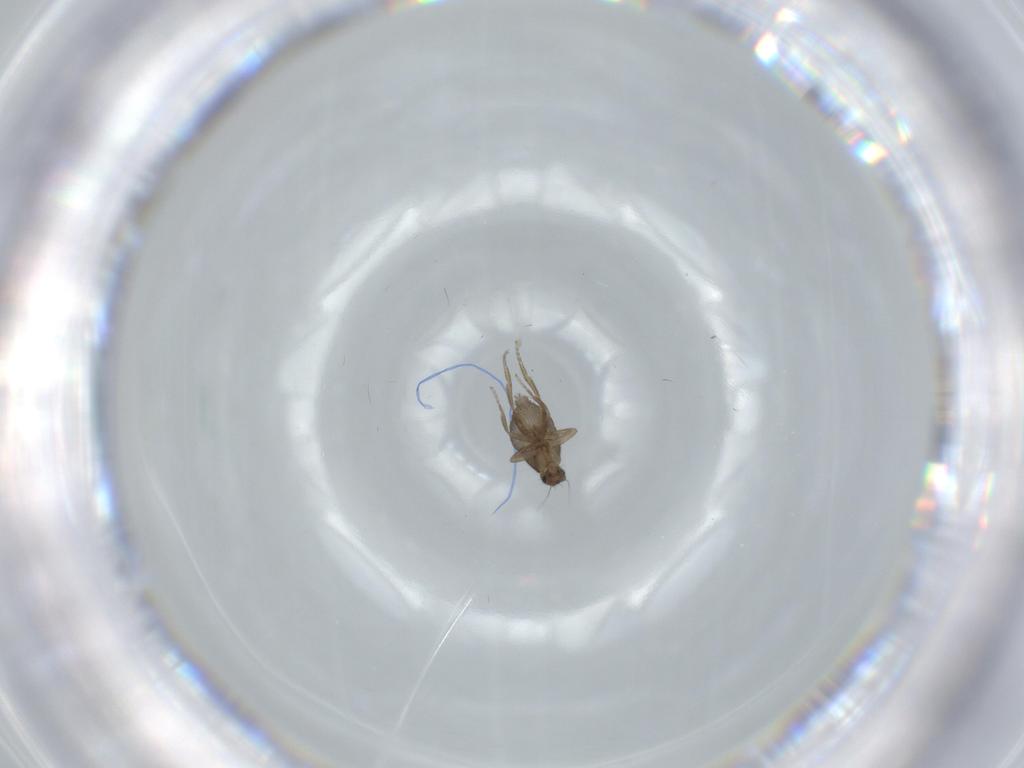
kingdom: Animalia
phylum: Arthropoda
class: Insecta
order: Diptera
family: Phoridae
